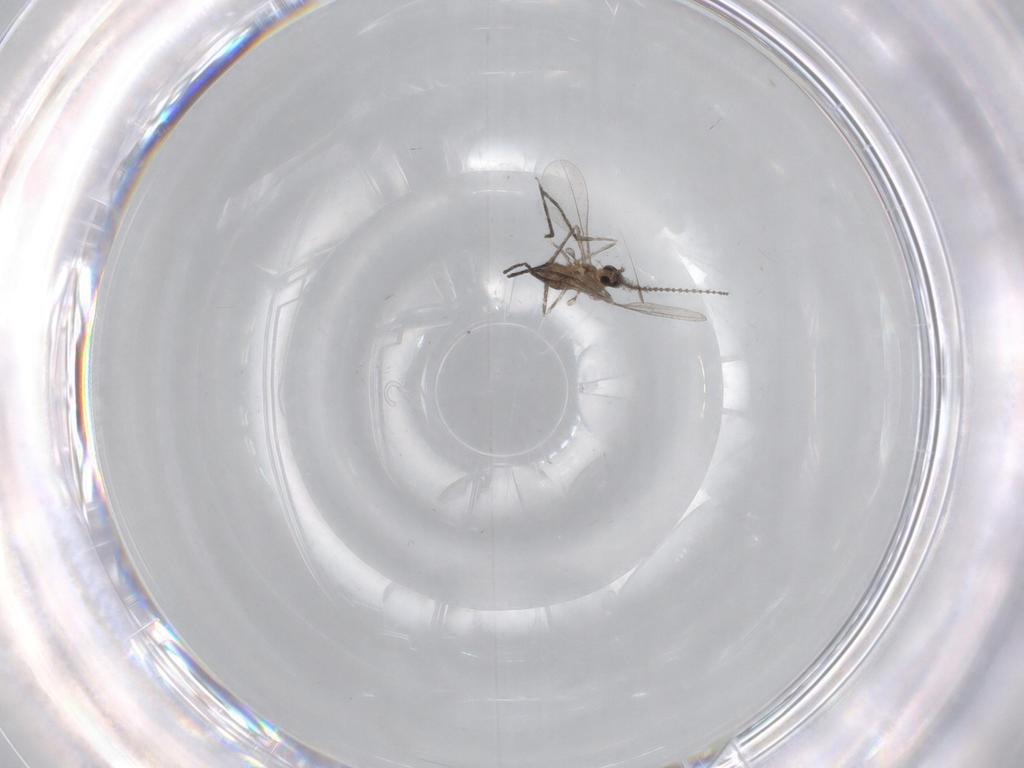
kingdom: Animalia
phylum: Arthropoda
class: Insecta
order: Diptera
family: Cecidomyiidae
